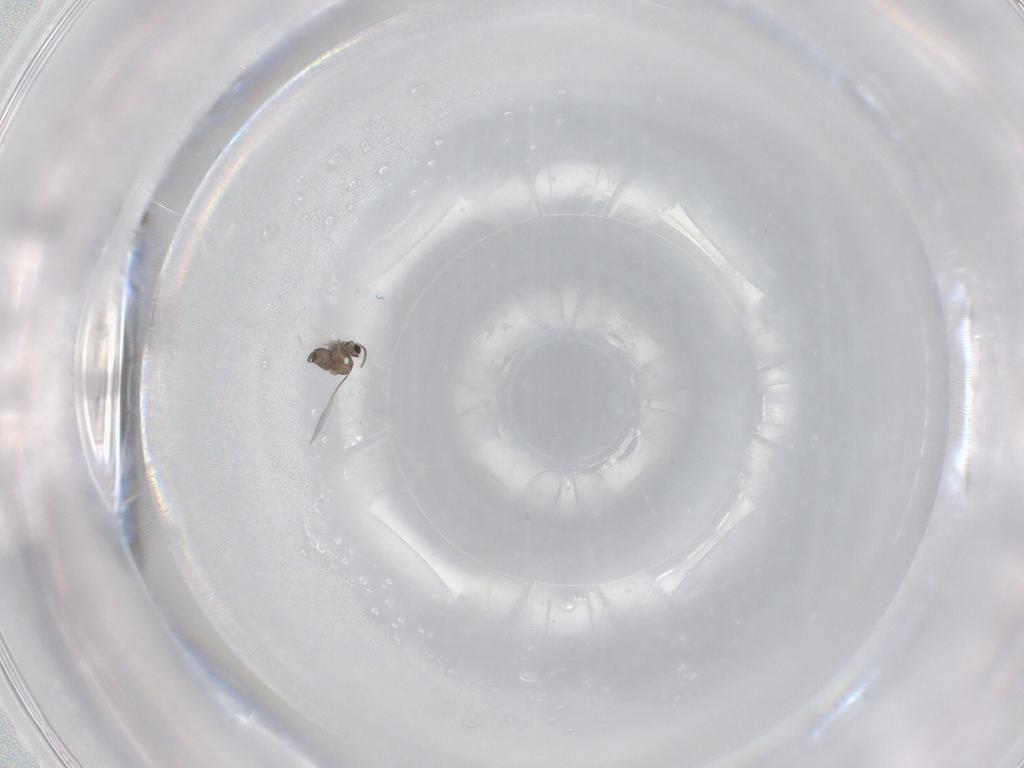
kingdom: Animalia
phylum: Arthropoda
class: Insecta
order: Diptera
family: Cecidomyiidae
